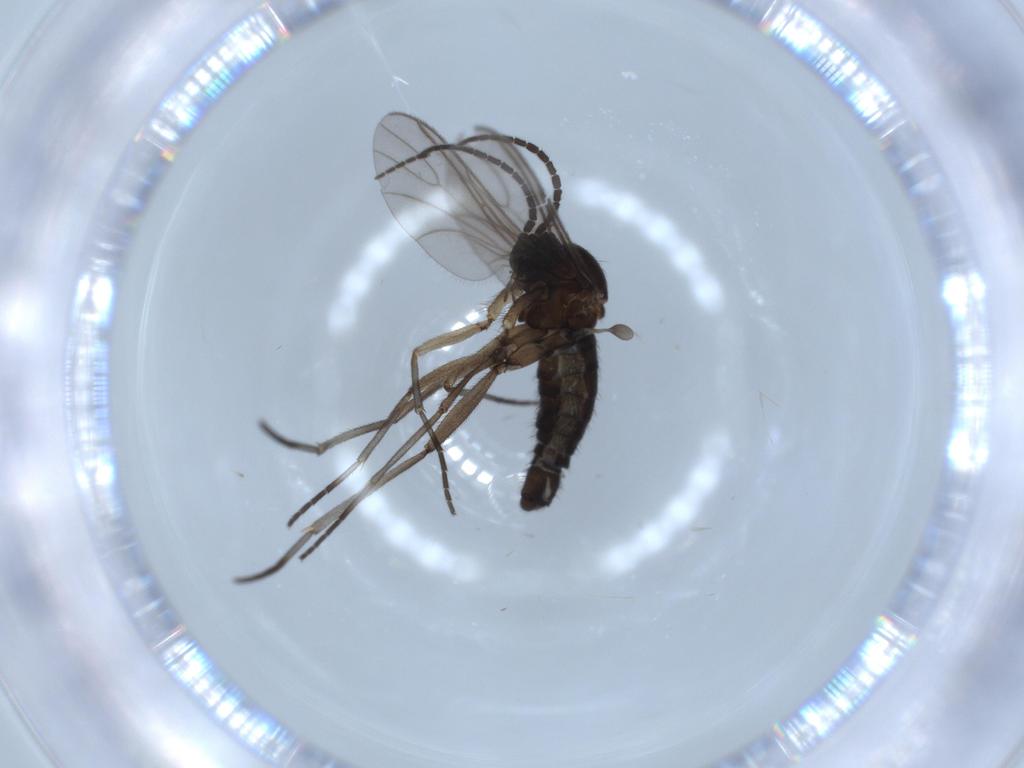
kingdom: Animalia
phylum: Arthropoda
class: Insecta
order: Diptera
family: Sciaridae
